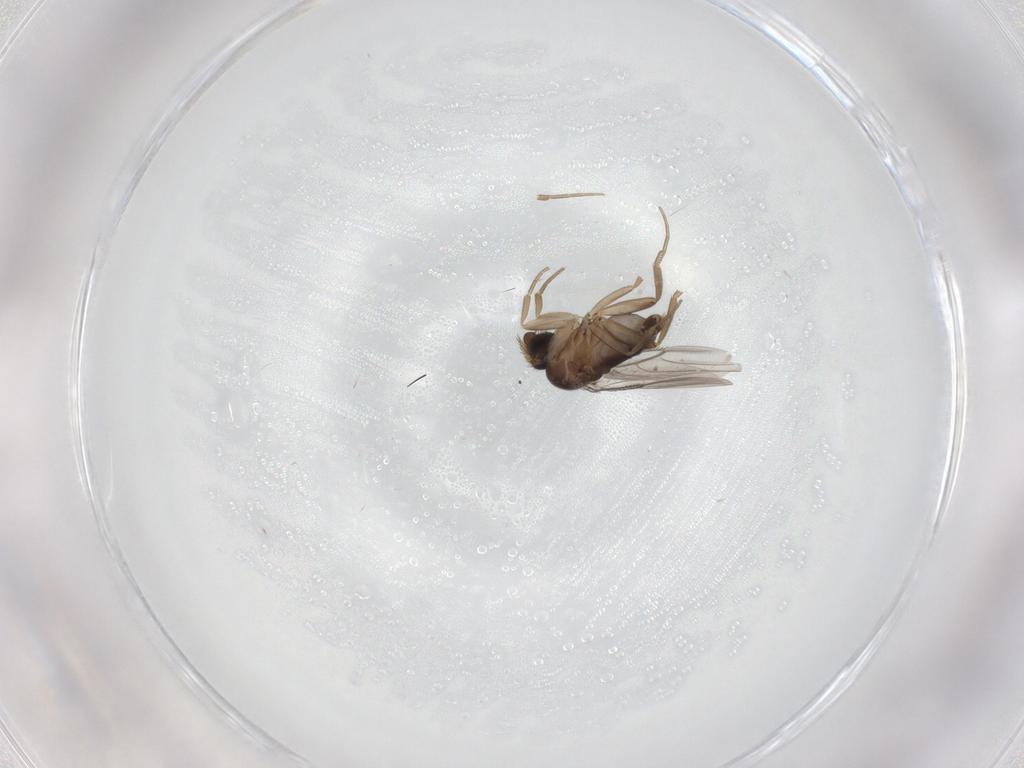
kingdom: Animalia
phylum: Arthropoda
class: Insecta
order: Diptera
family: Phoridae
